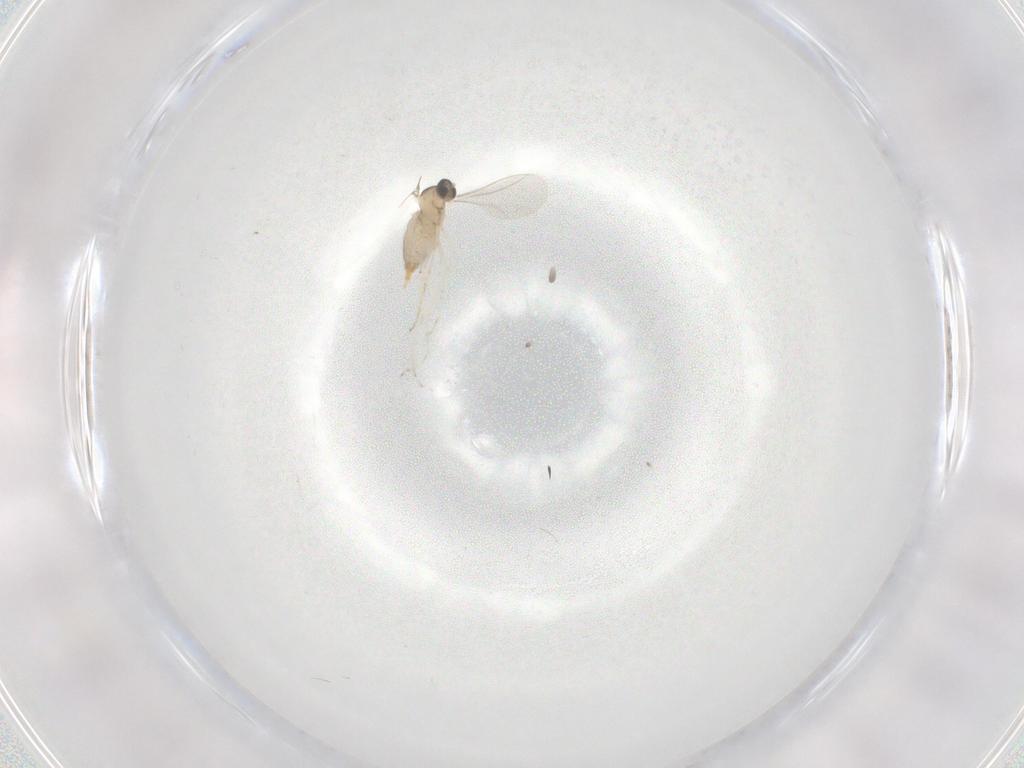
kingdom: Animalia
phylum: Arthropoda
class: Insecta
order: Diptera
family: Cecidomyiidae
